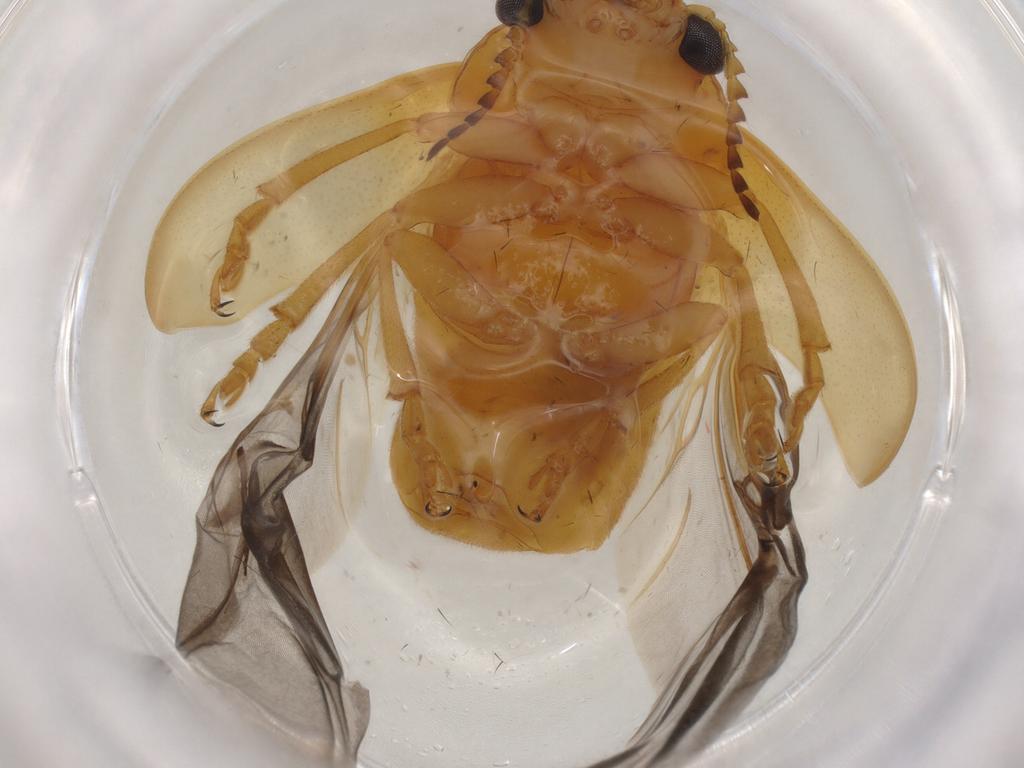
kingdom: Animalia
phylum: Arthropoda
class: Insecta
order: Coleoptera
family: Chrysomelidae
